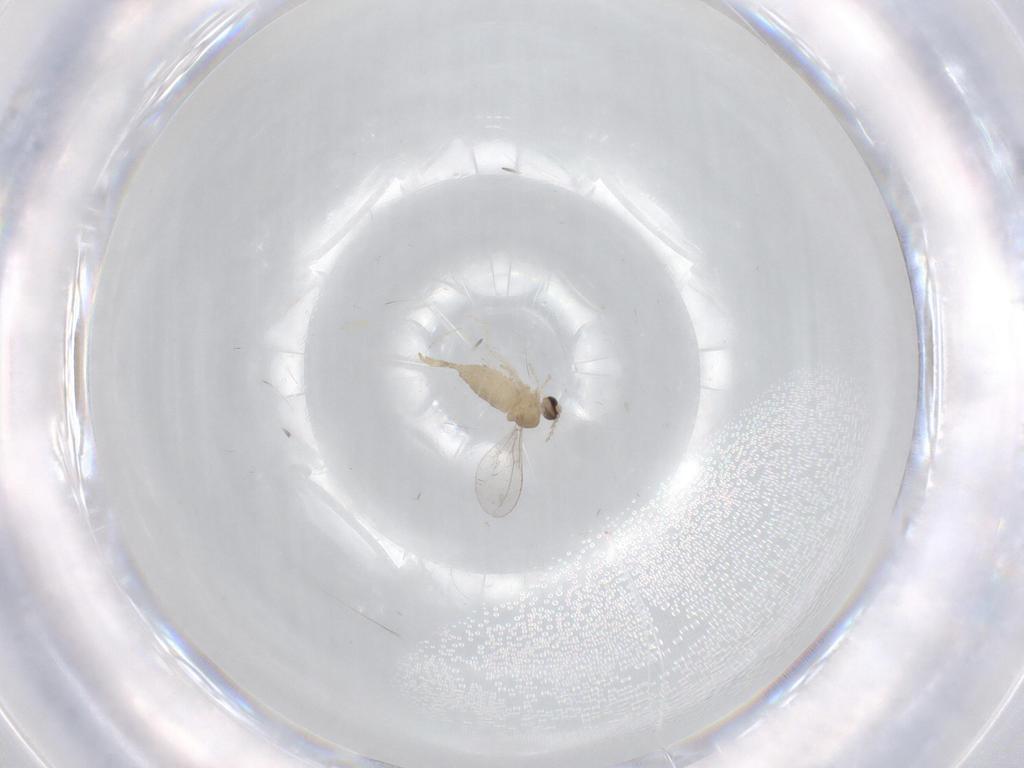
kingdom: Animalia
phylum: Arthropoda
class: Insecta
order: Diptera
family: Cecidomyiidae
